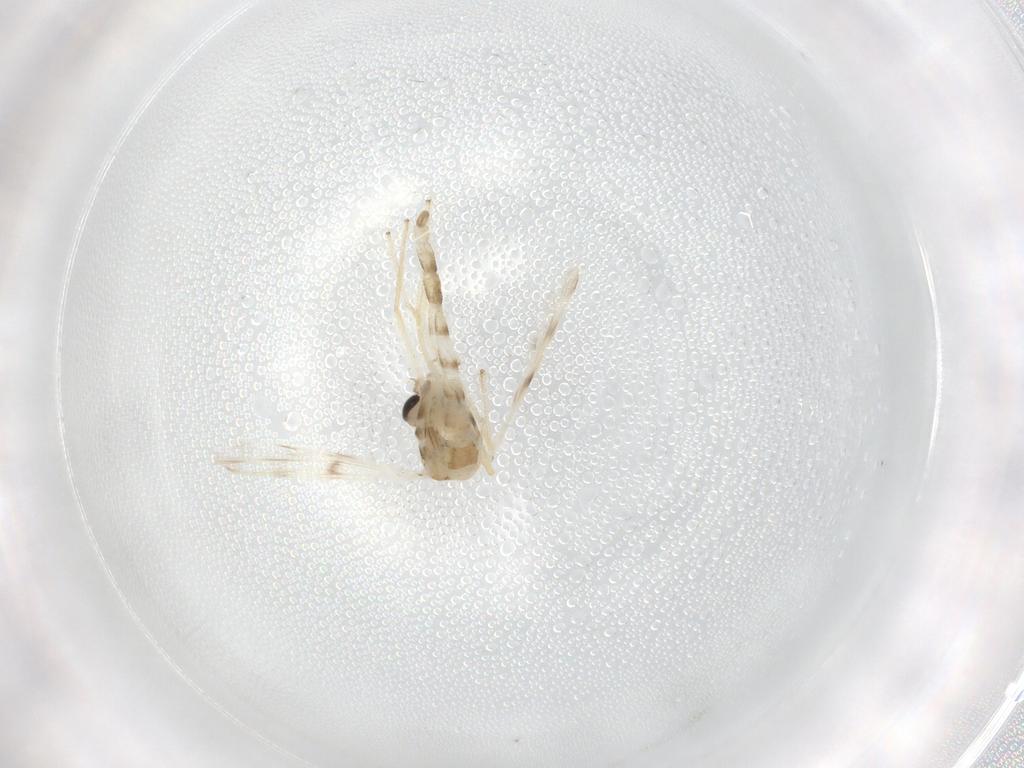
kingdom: Animalia
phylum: Arthropoda
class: Insecta
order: Diptera
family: Chironomidae
